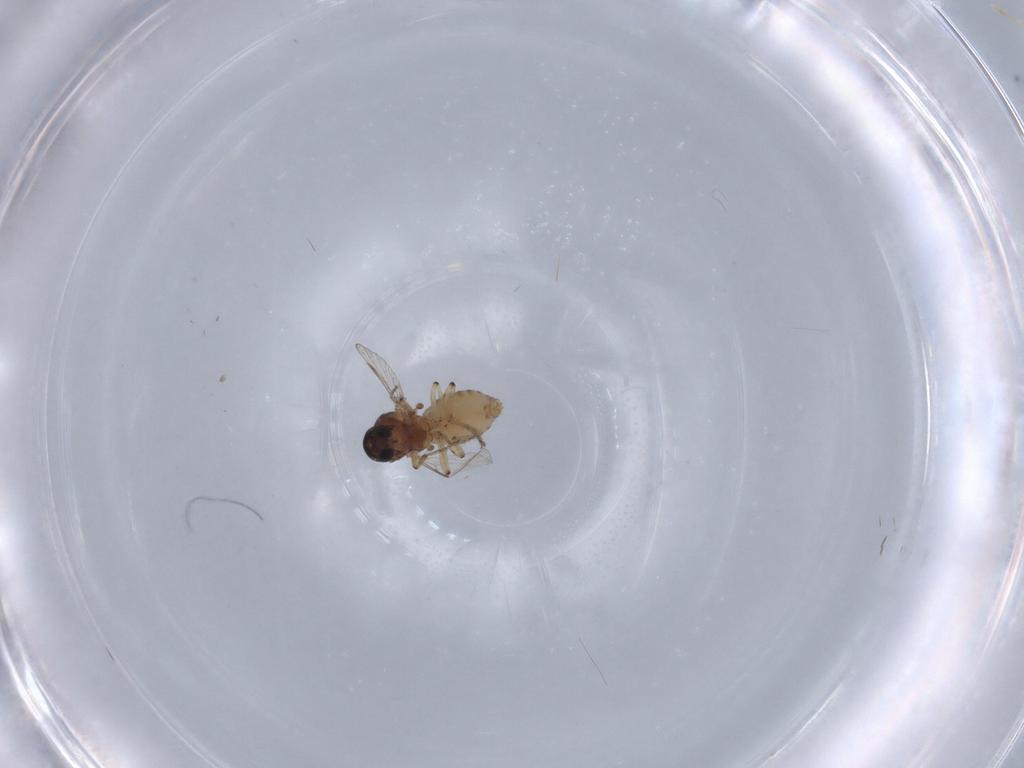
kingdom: Animalia
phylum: Arthropoda
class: Insecta
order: Diptera
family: Ceratopogonidae
